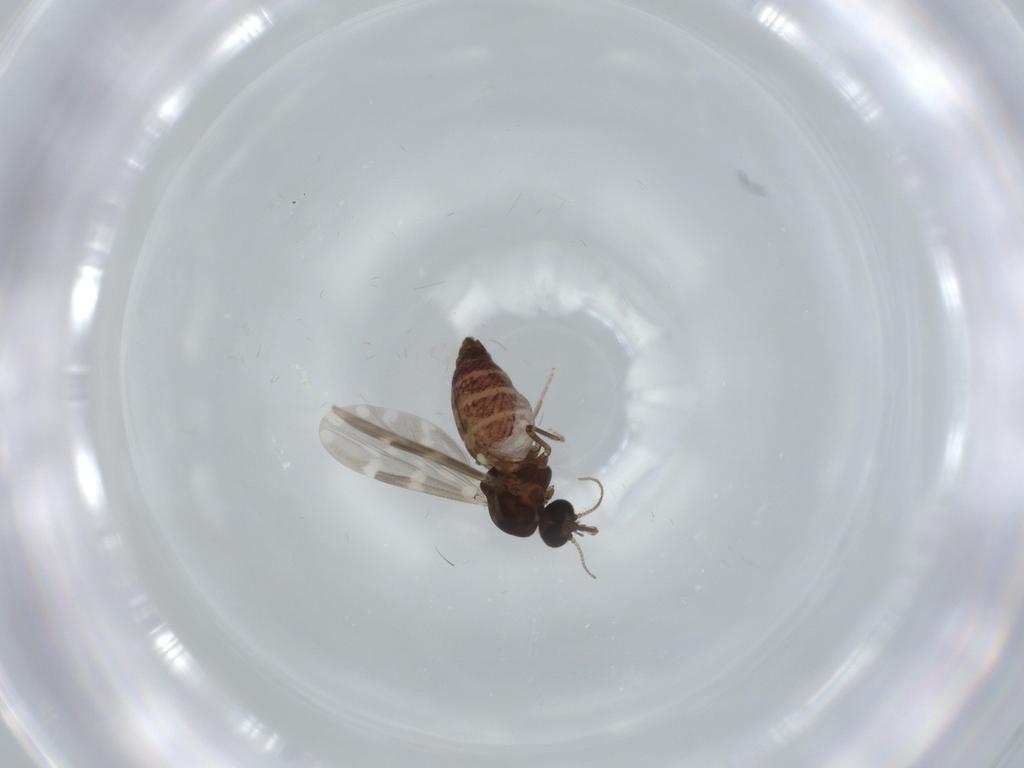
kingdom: Animalia
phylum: Arthropoda
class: Insecta
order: Diptera
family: Ceratopogonidae
